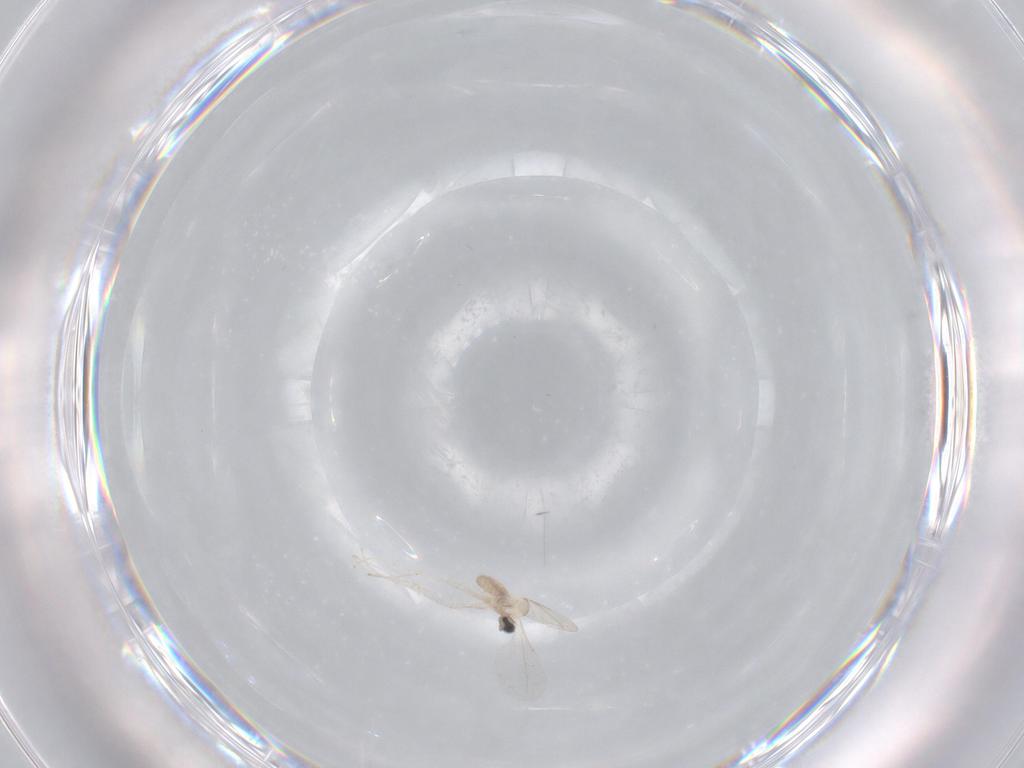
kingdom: Animalia
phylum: Arthropoda
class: Insecta
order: Diptera
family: Cecidomyiidae
